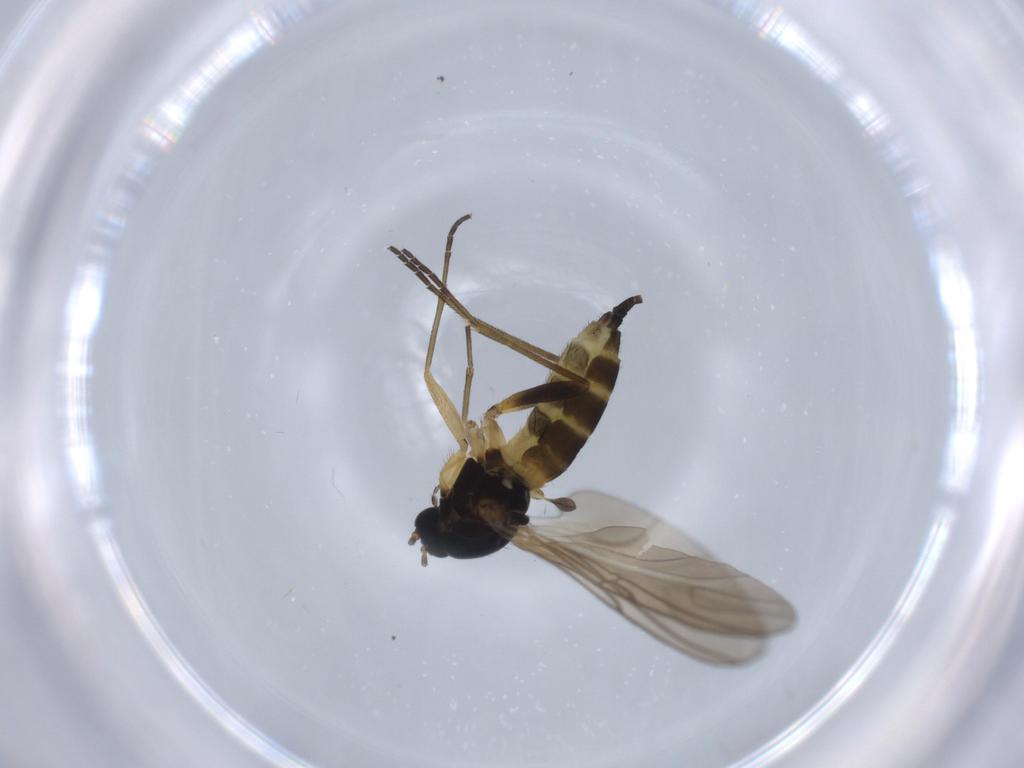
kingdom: Animalia
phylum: Arthropoda
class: Insecta
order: Diptera
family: Sciaridae
